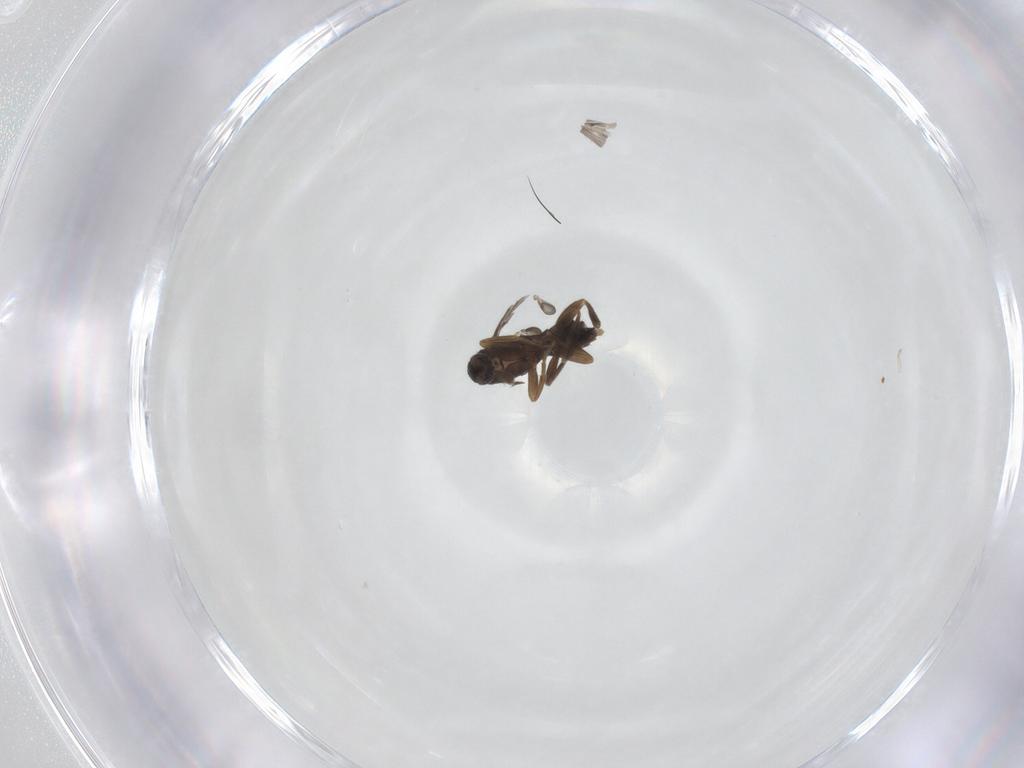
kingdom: Animalia
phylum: Arthropoda
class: Insecta
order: Diptera
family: Phoridae
